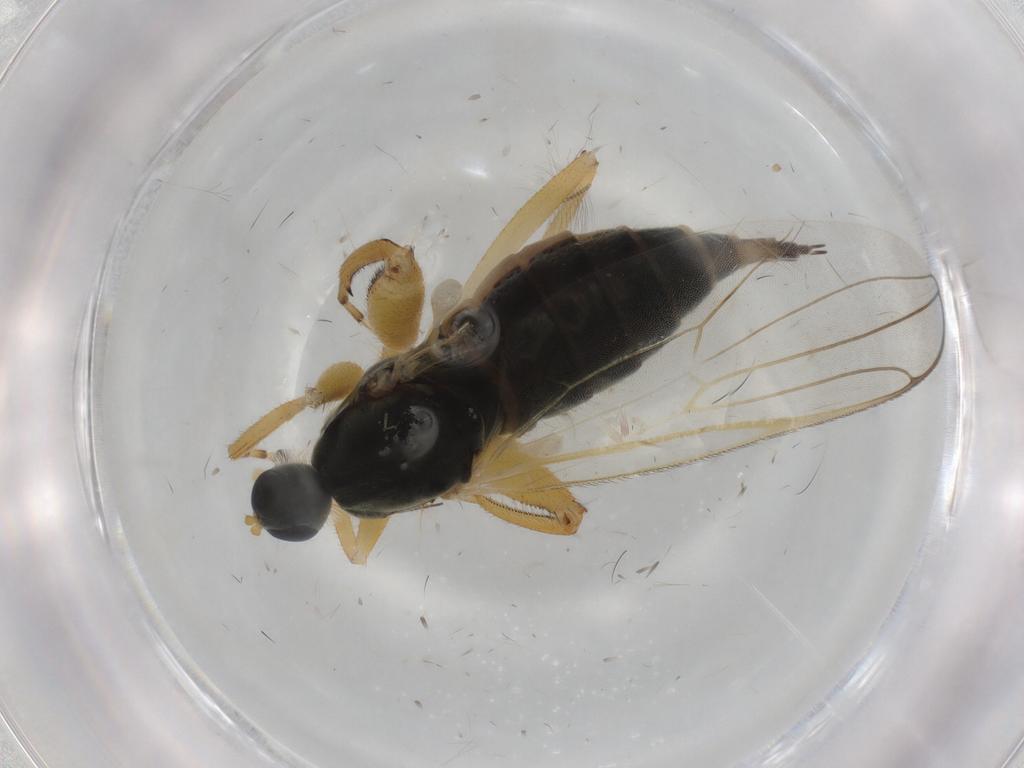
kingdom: Animalia
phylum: Arthropoda
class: Insecta
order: Diptera
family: Hybotidae
